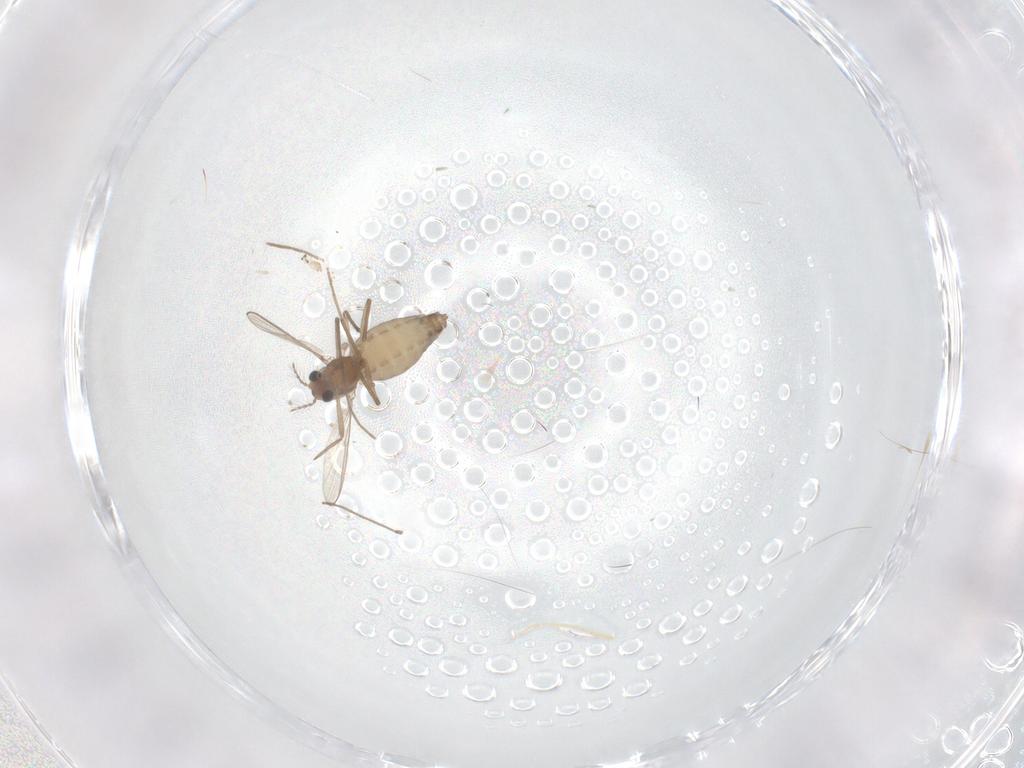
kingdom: Animalia
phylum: Arthropoda
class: Insecta
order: Diptera
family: Chironomidae
